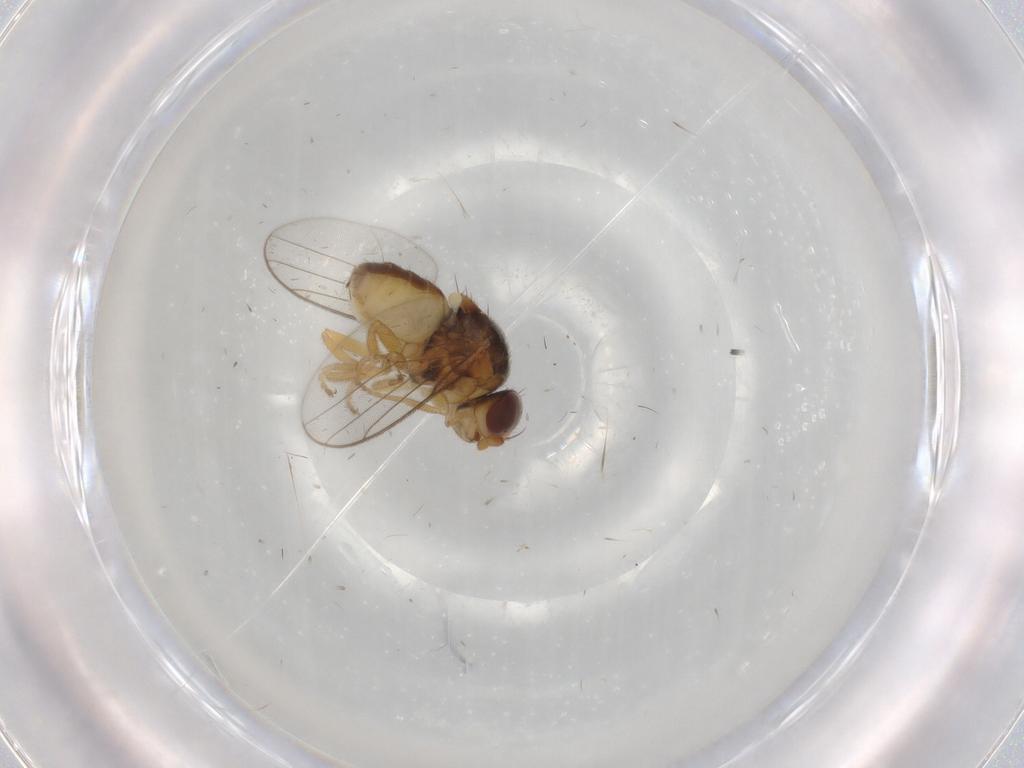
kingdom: Animalia
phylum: Arthropoda
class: Insecta
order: Diptera
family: Chloropidae
